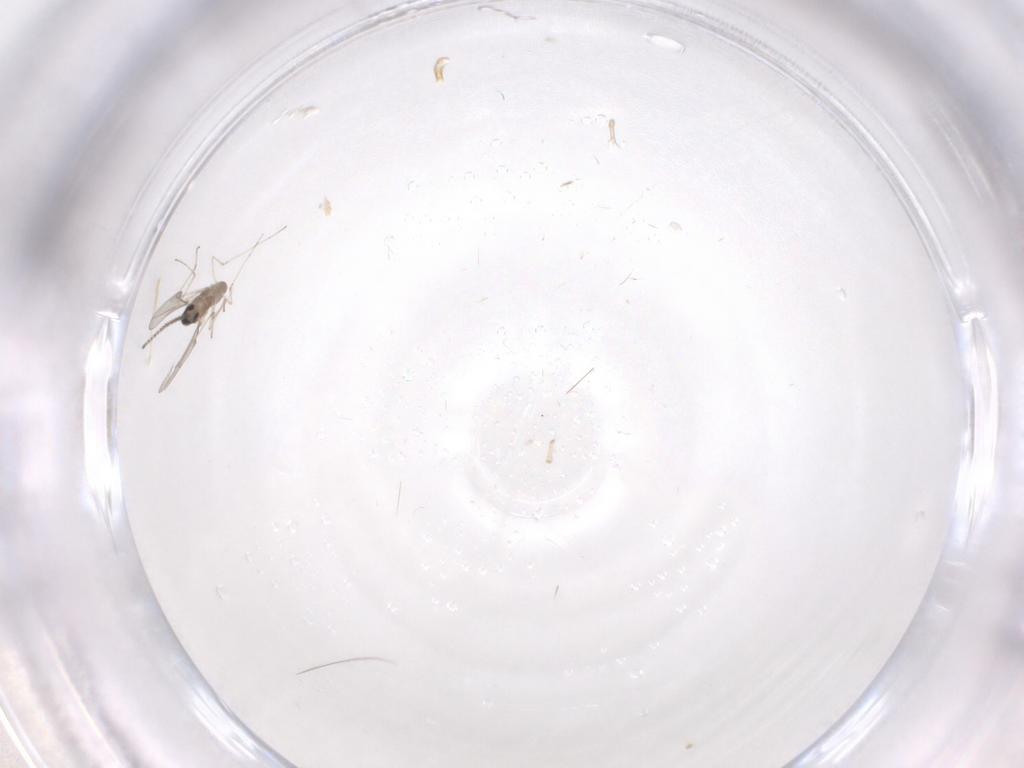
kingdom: Animalia
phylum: Arthropoda
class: Insecta
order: Diptera
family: Cecidomyiidae
